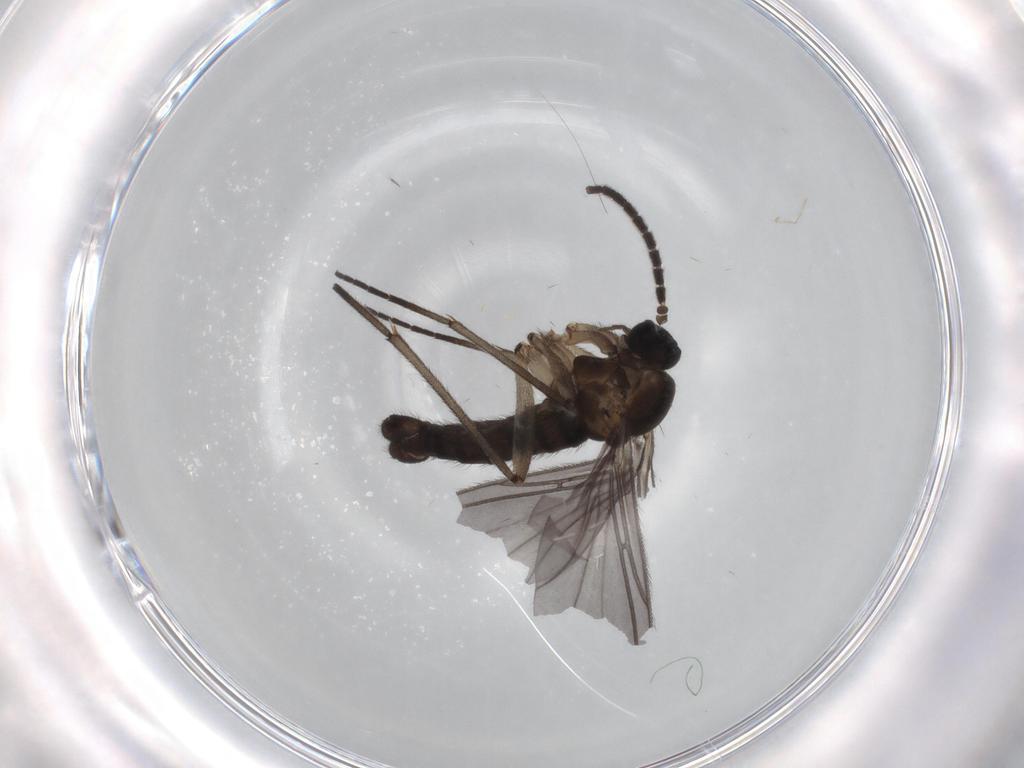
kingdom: Animalia
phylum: Arthropoda
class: Insecta
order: Diptera
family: Sciaridae
